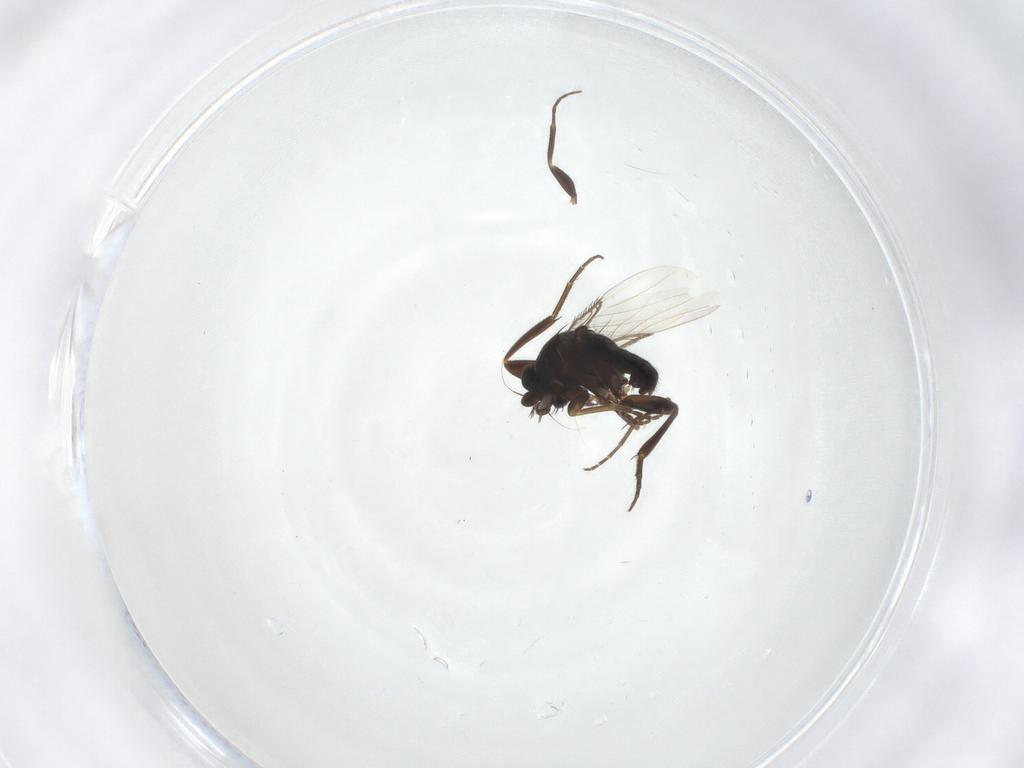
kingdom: Animalia
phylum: Arthropoda
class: Insecta
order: Diptera
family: Phoridae
